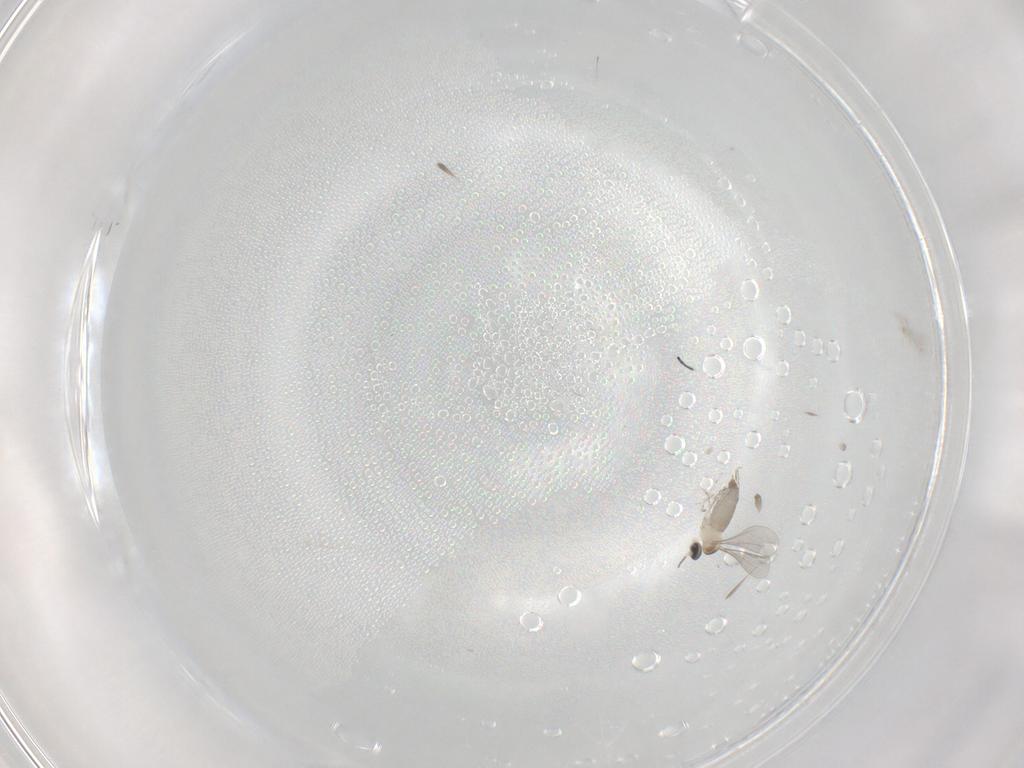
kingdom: Animalia
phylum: Arthropoda
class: Insecta
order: Diptera
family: Cecidomyiidae
